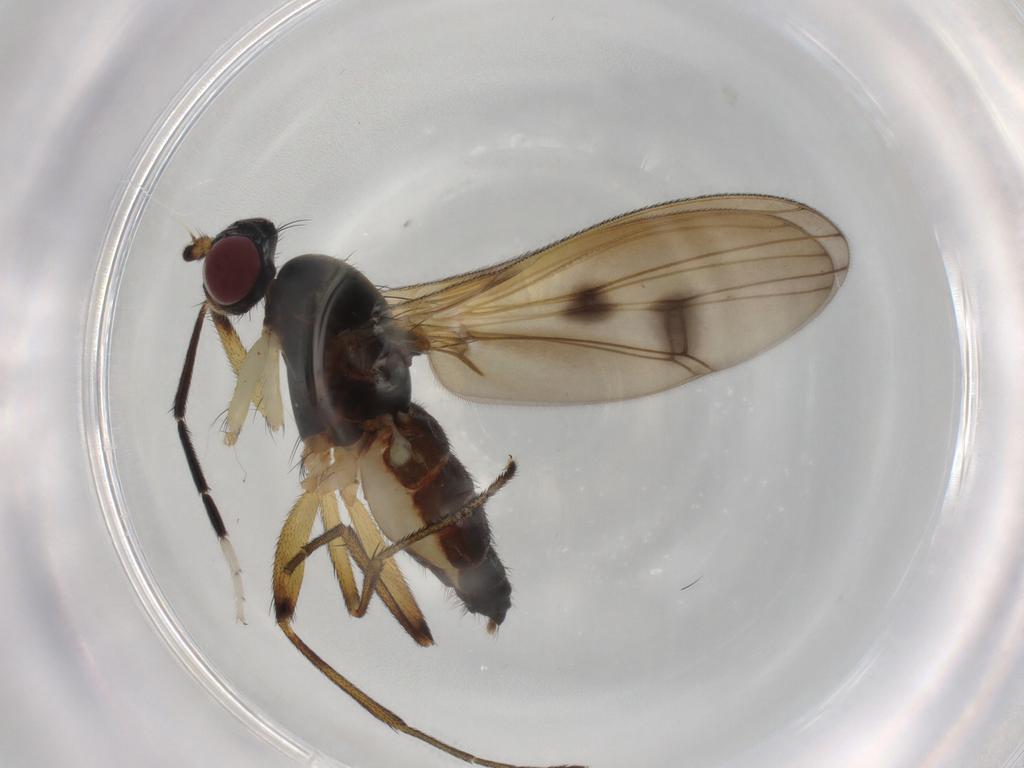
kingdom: Animalia
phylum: Arthropoda
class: Insecta
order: Diptera
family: Sciomyzidae
